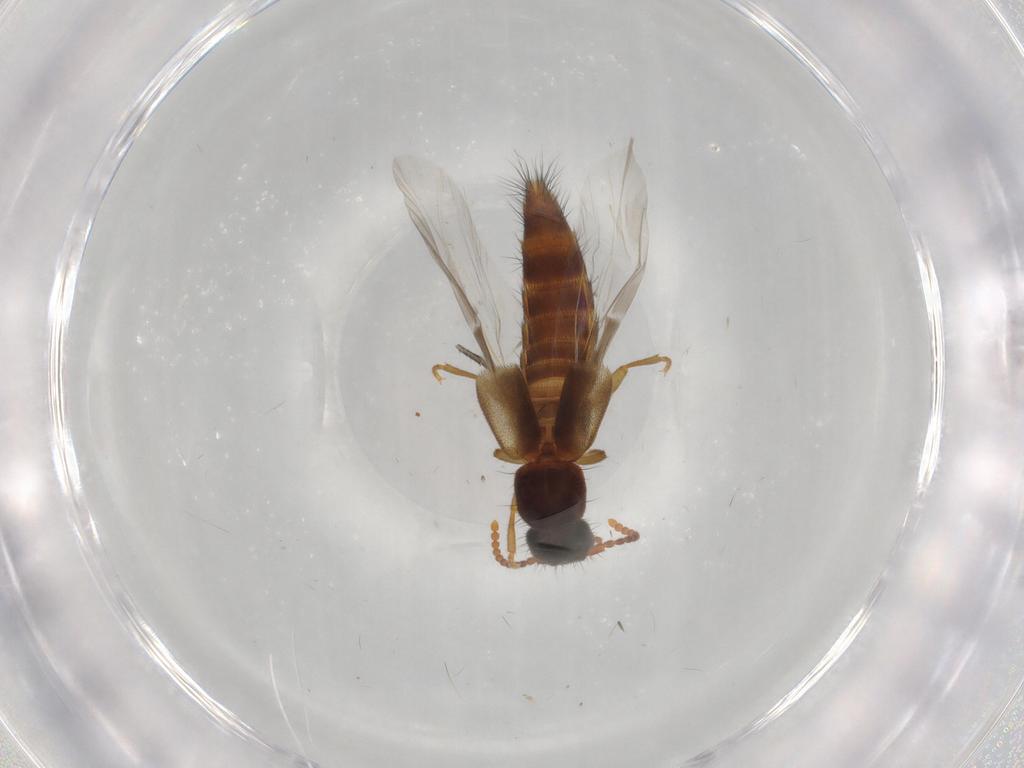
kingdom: Animalia
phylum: Arthropoda
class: Insecta
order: Coleoptera
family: Staphylinidae
